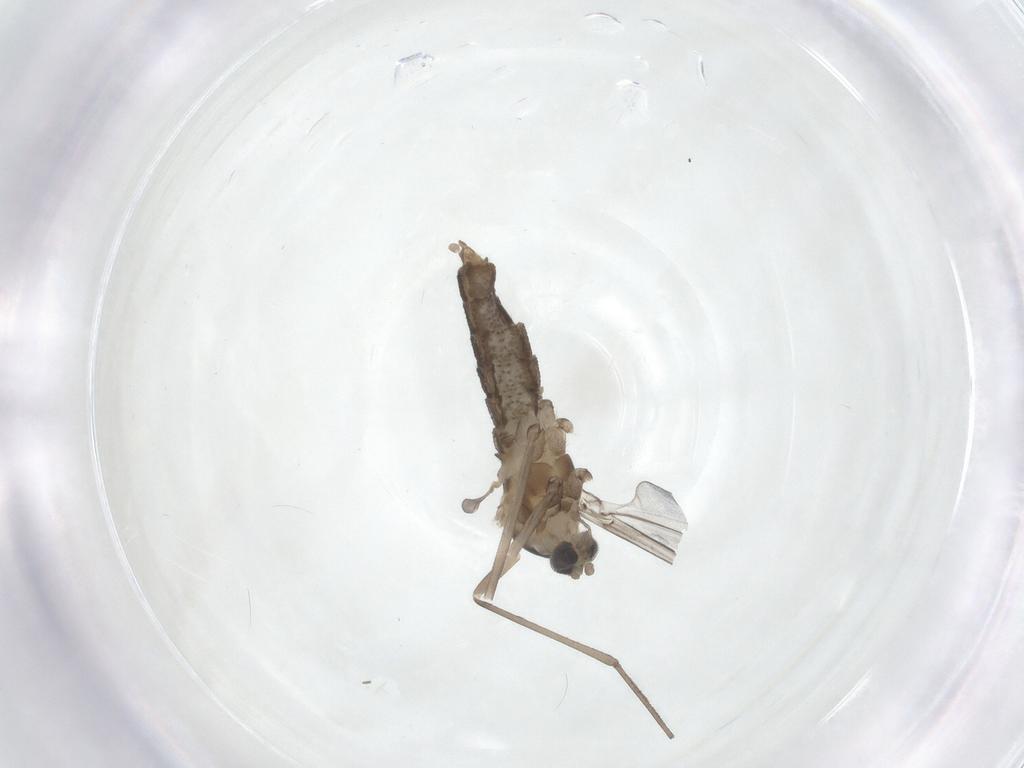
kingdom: Animalia
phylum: Arthropoda
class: Insecta
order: Diptera
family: Cecidomyiidae
